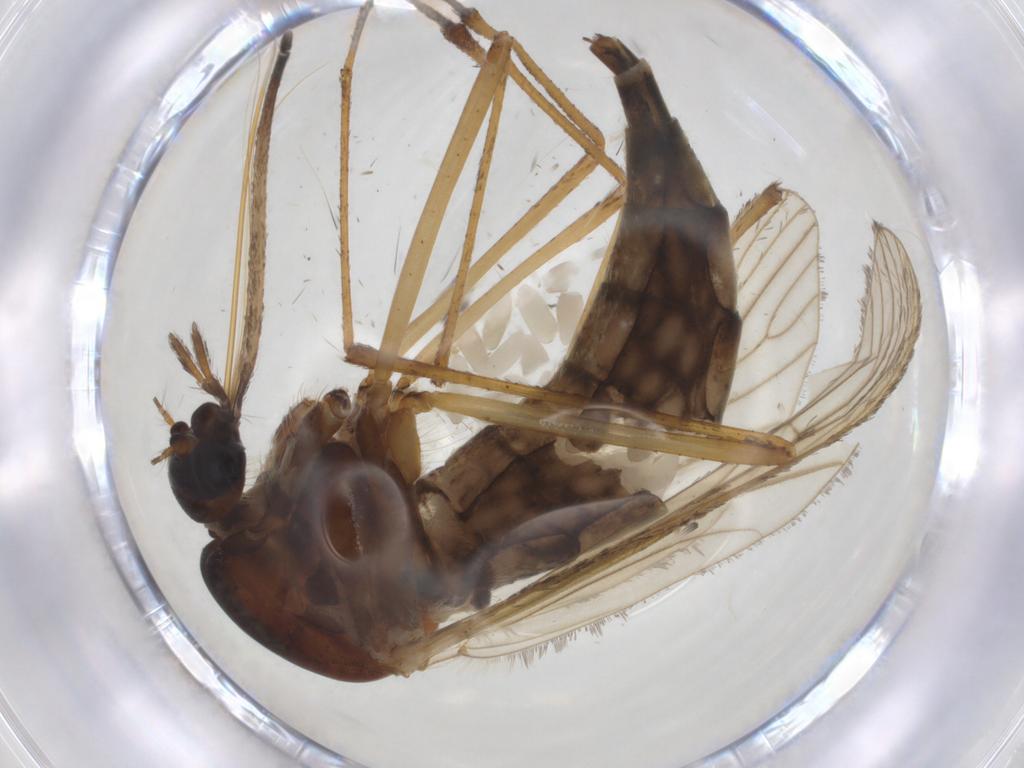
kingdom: Animalia
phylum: Arthropoda
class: Insecta
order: Diptera
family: Culicidae
